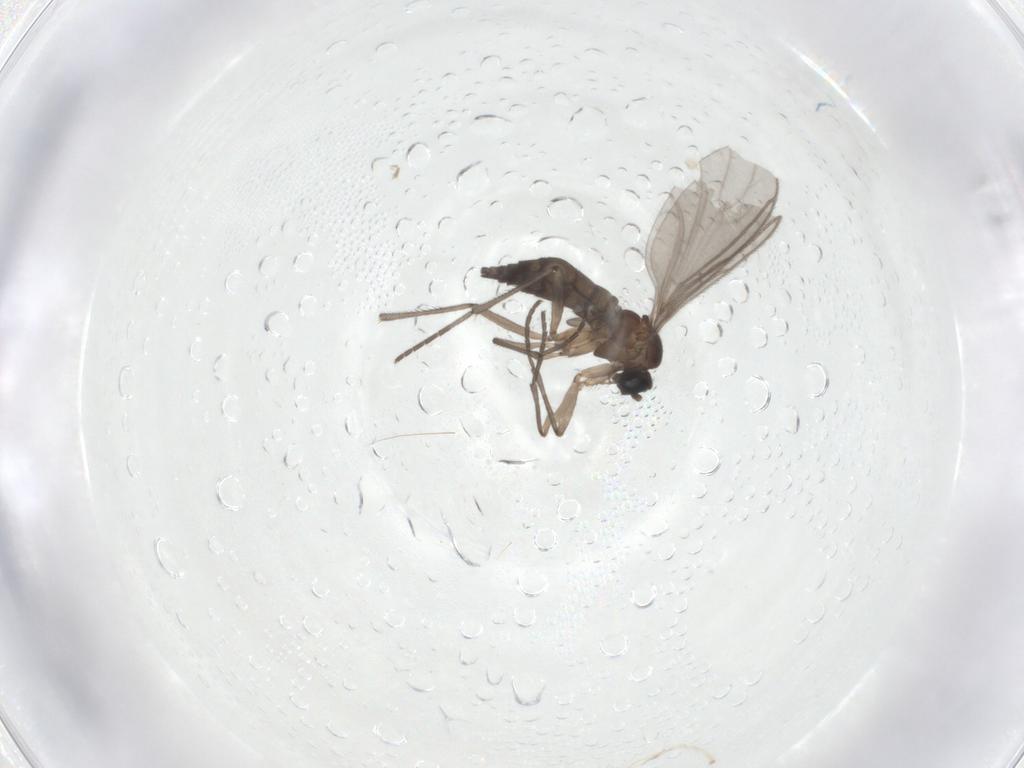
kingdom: Animalia
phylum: Arthropoda
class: Insecta
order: Diptera
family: Sciaridae
